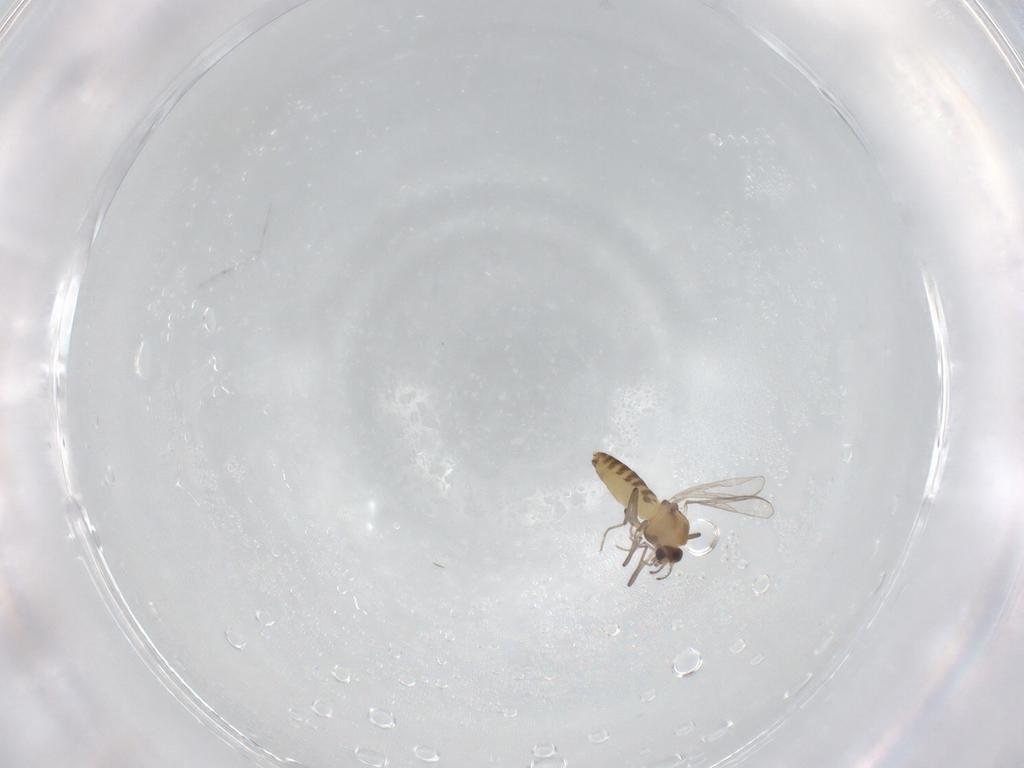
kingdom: Animalia
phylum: Arthropoda
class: Insecta
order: Diptera
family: Chironomidae
